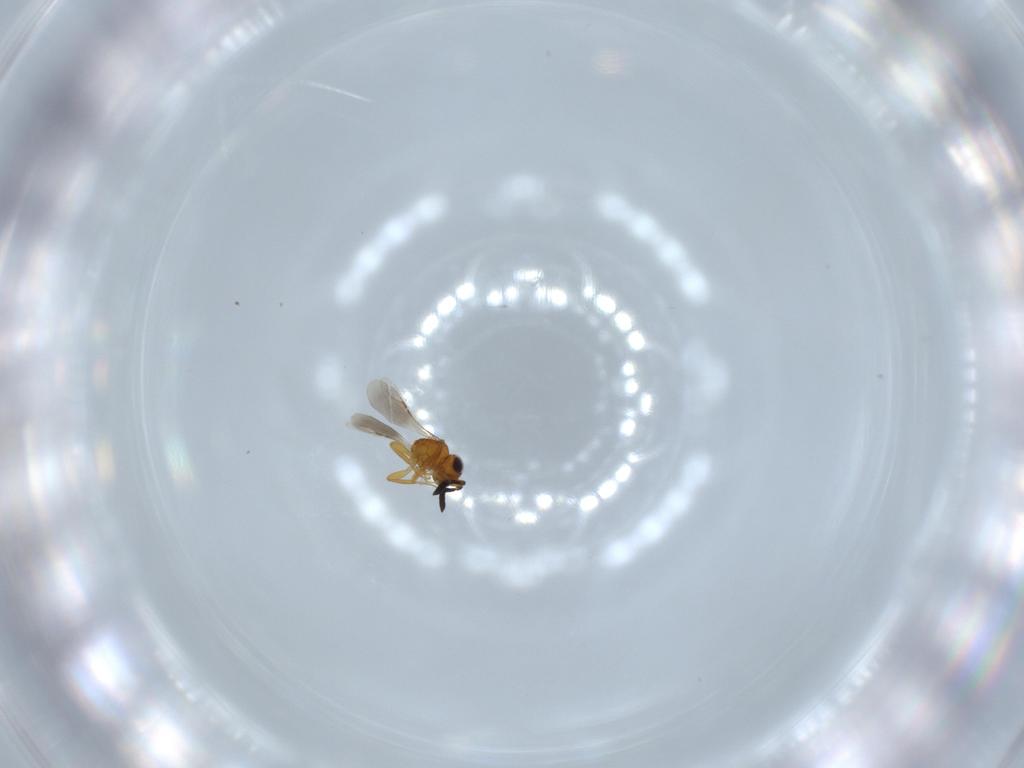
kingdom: Animalia
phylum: Arthropoda
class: Insecta
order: Hymenoptera
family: Ceraphronidae
